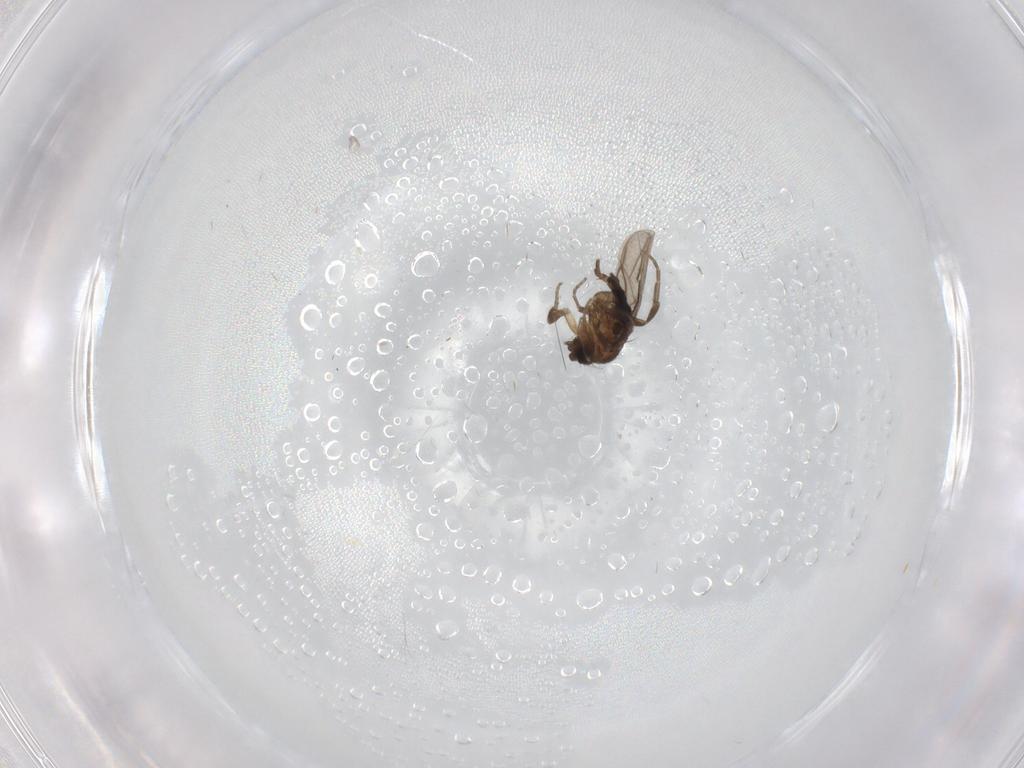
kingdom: Animalia
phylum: Arthropoda
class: Insecta
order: Diptera
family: Cecidomyiidae
